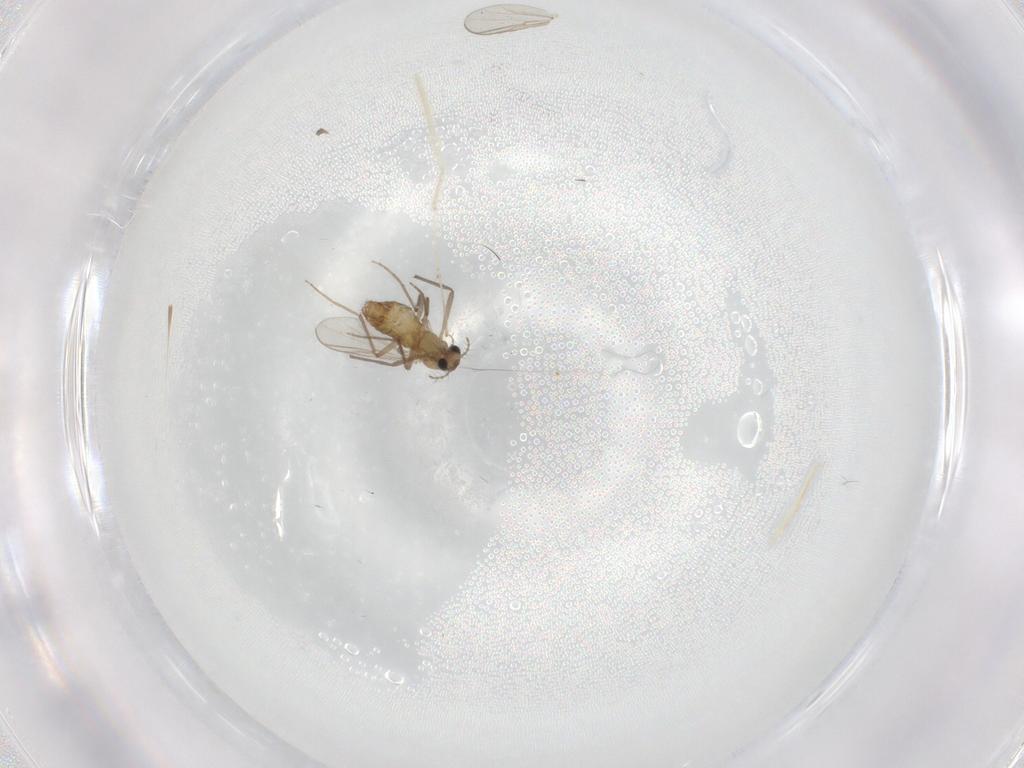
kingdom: Animalia
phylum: Arthropoda
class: Insecta
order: Diptera
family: Chironomidae
